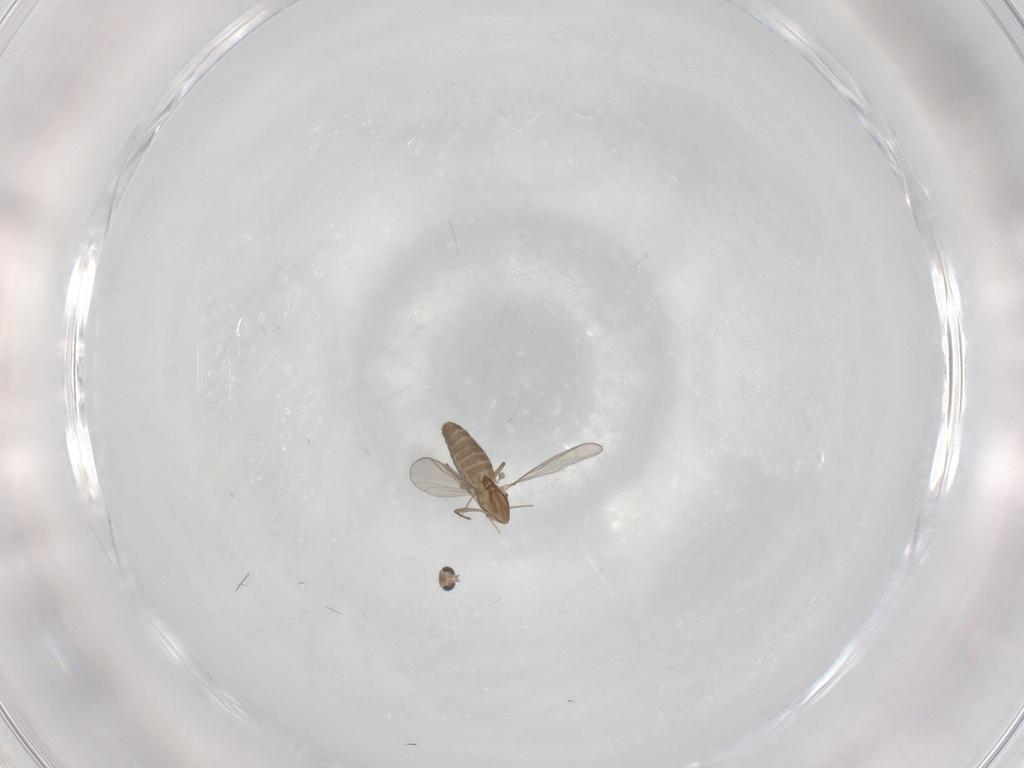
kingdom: Animalia
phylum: Arthropoda
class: Insecta
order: Diptera
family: Chironomidae
